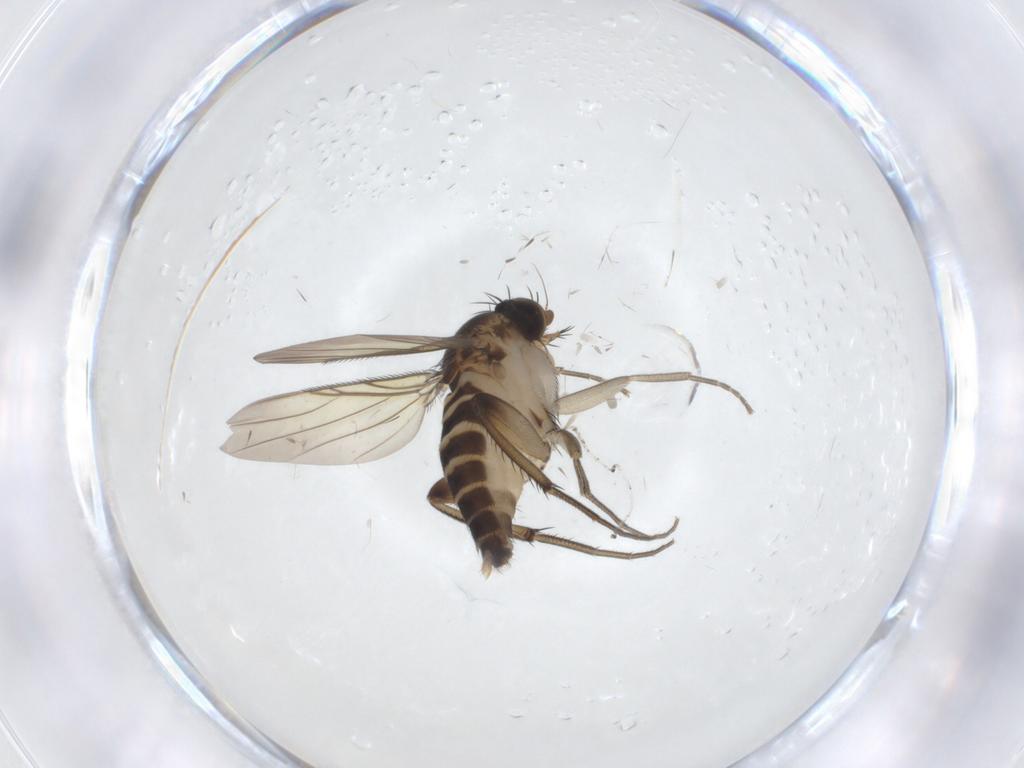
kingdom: Animalia
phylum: Arthropoda
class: Insecta
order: Diptera
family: Phoridae
